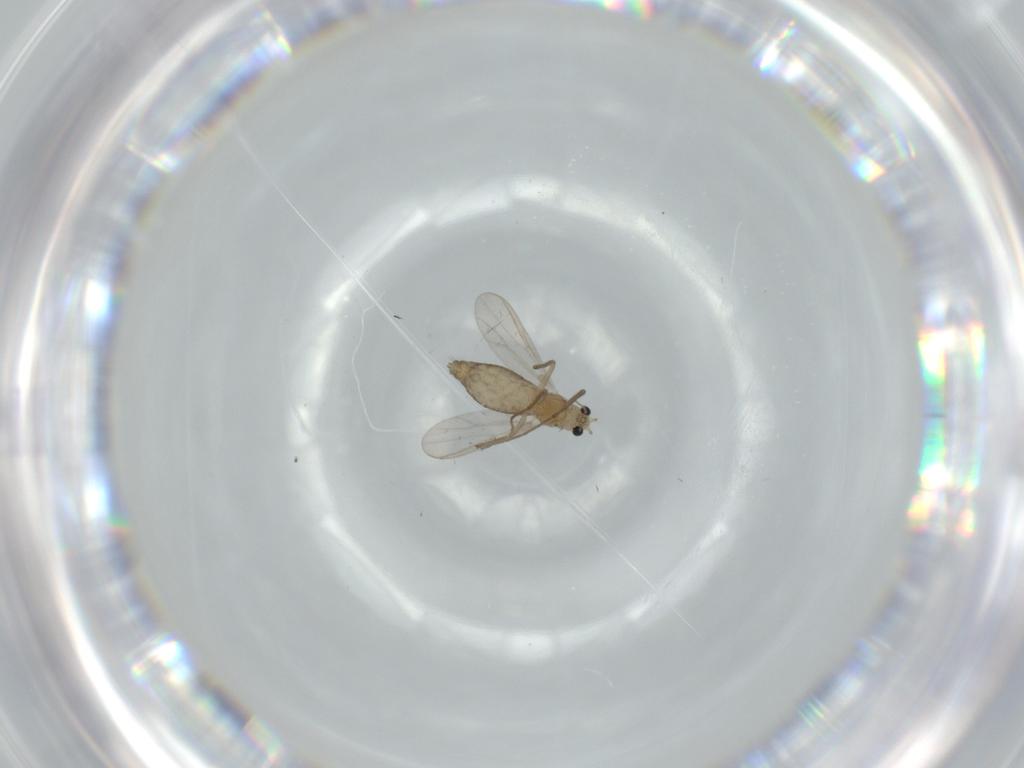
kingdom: Animalia
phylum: Arthropoda
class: Insecta
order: Diptera
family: Chironomidae
